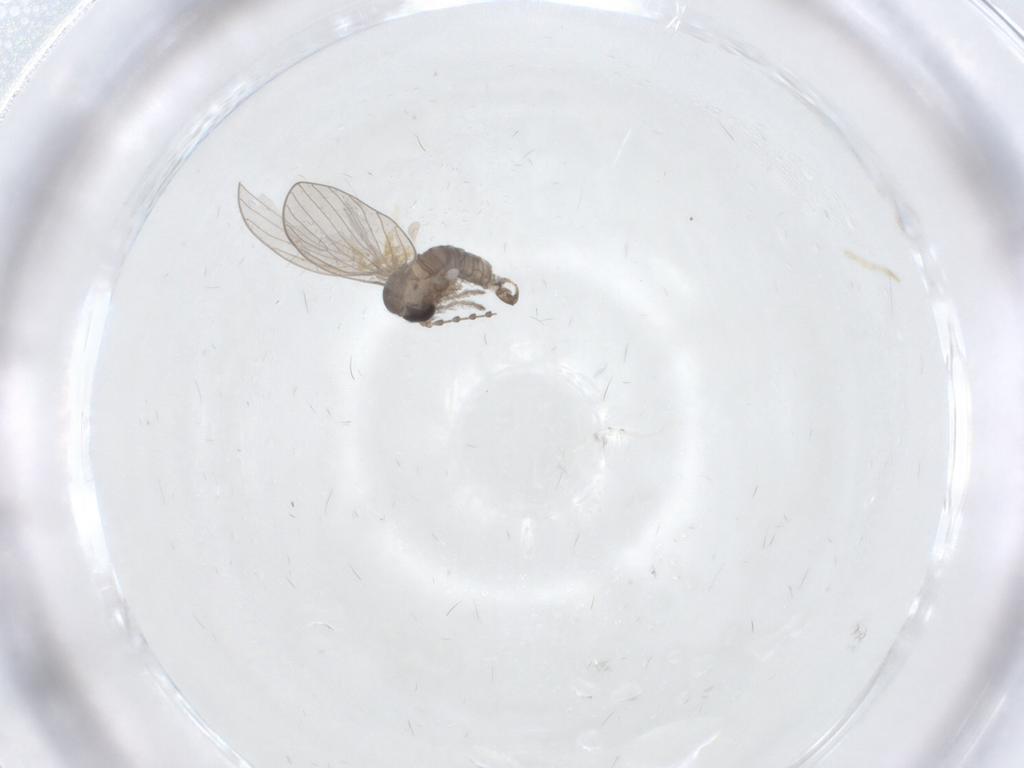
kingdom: Animalia
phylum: Arthropoda
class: Insecta
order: Diptera
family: Psychodidae
